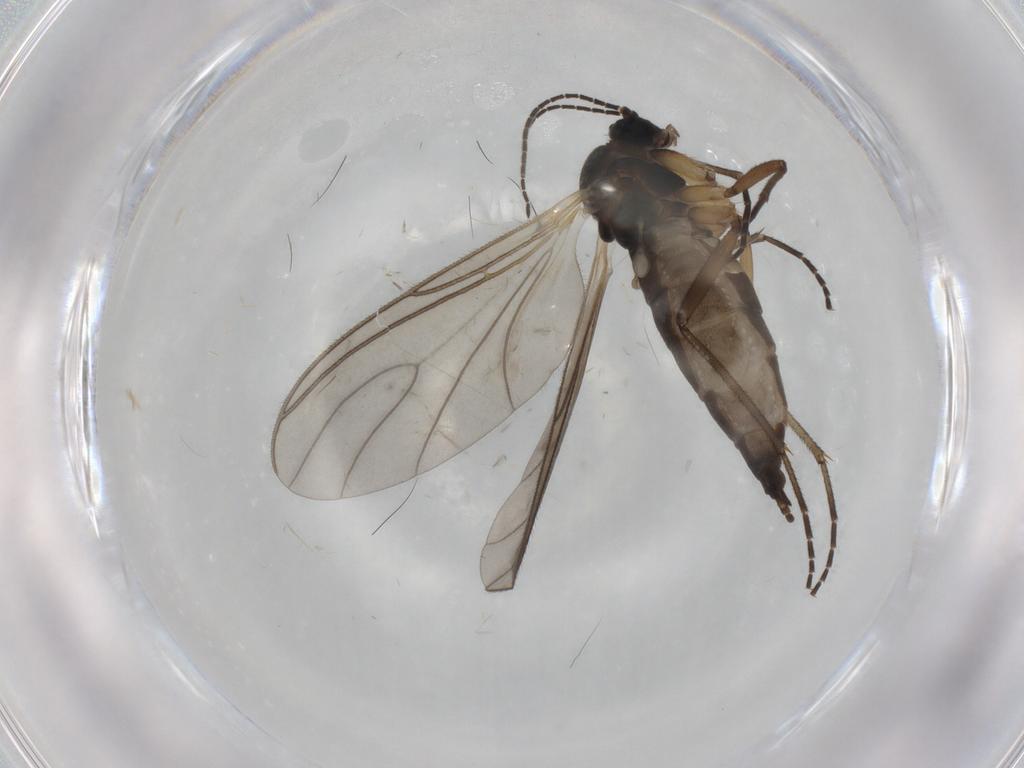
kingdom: Animalia
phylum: Arthropoda
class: Insecta
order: Diptera
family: Sciaridae
